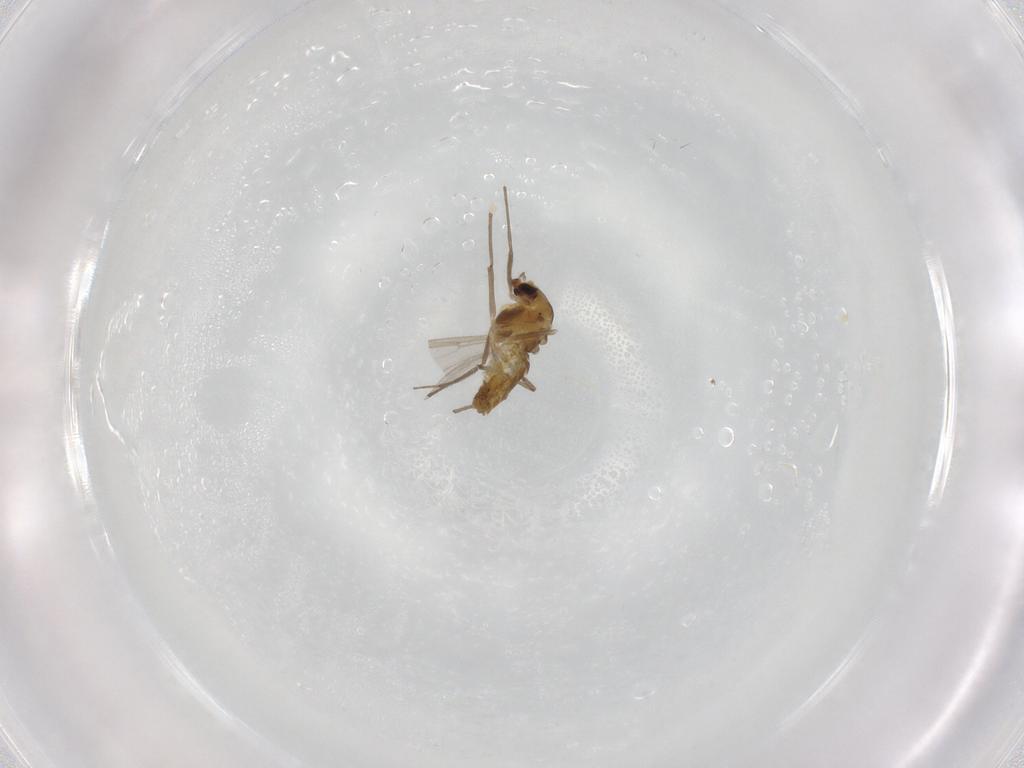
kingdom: Animalia
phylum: Arthropoda
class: Insecta
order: Diptera
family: Chironomidae
